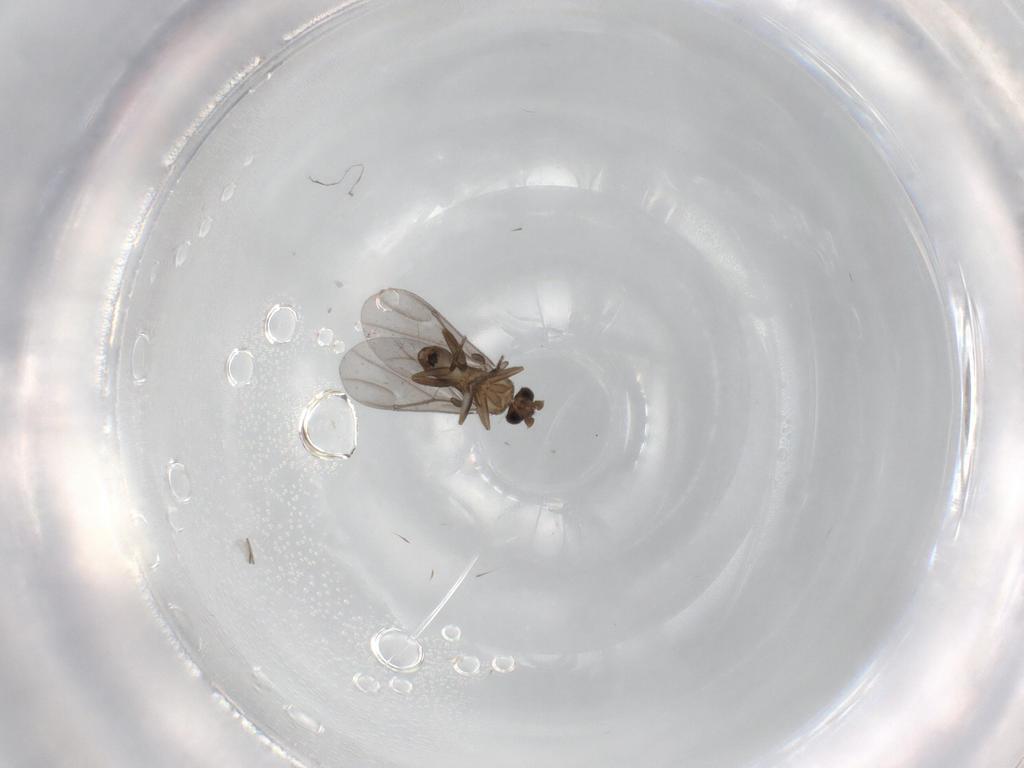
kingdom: Animalia
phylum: Arthropoda
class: Insecta
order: Diptera
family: Phoridae
